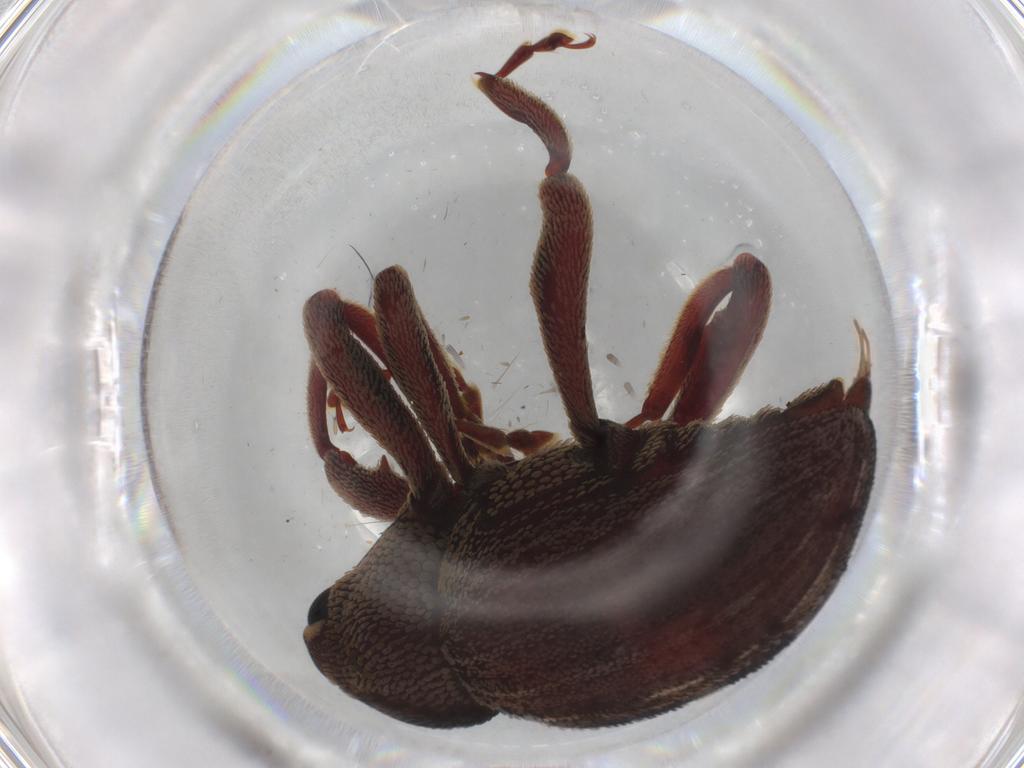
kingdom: Animalia
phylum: Arthropoda
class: Insecta
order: Coleoptera
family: Curculionidae
